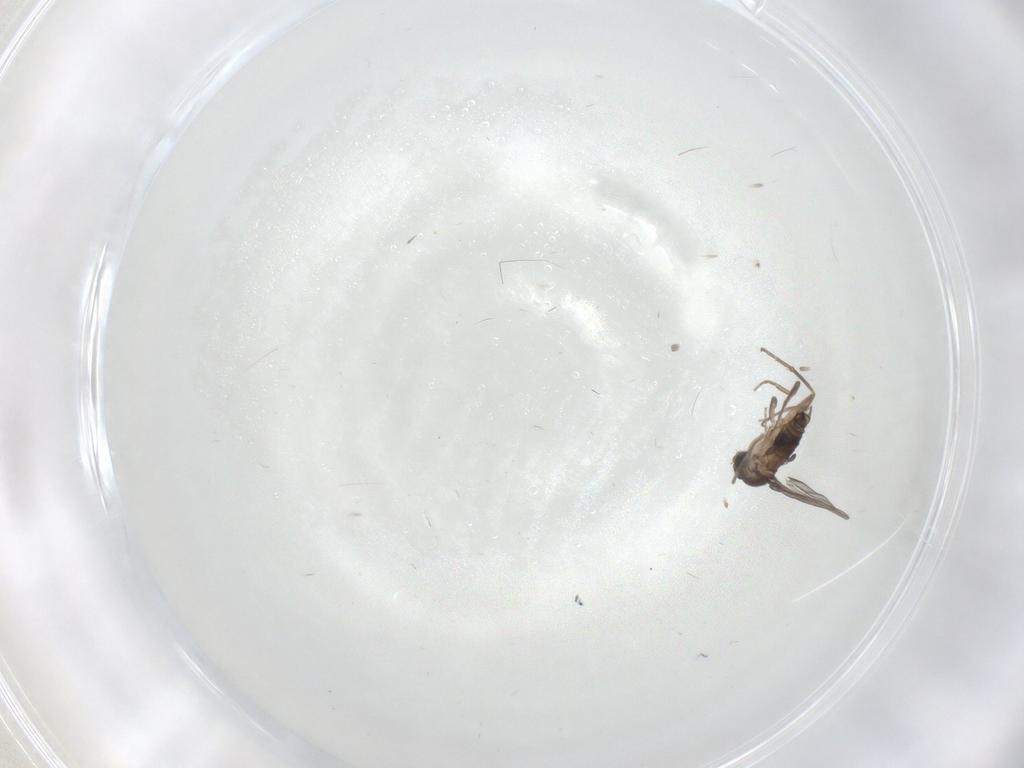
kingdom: Animalia
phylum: Arthropoda
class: Insecta
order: Diptera
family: Phoridae
